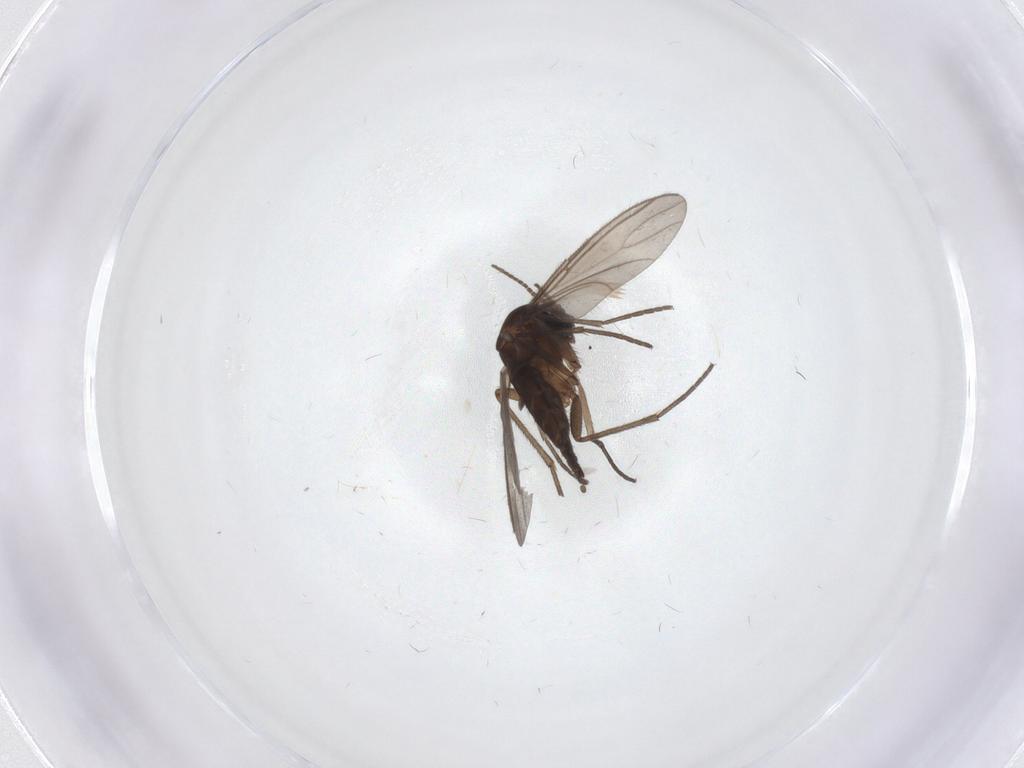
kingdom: Animalia
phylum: Arthropoda
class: Insecta
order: Diptera
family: Sciaridae
